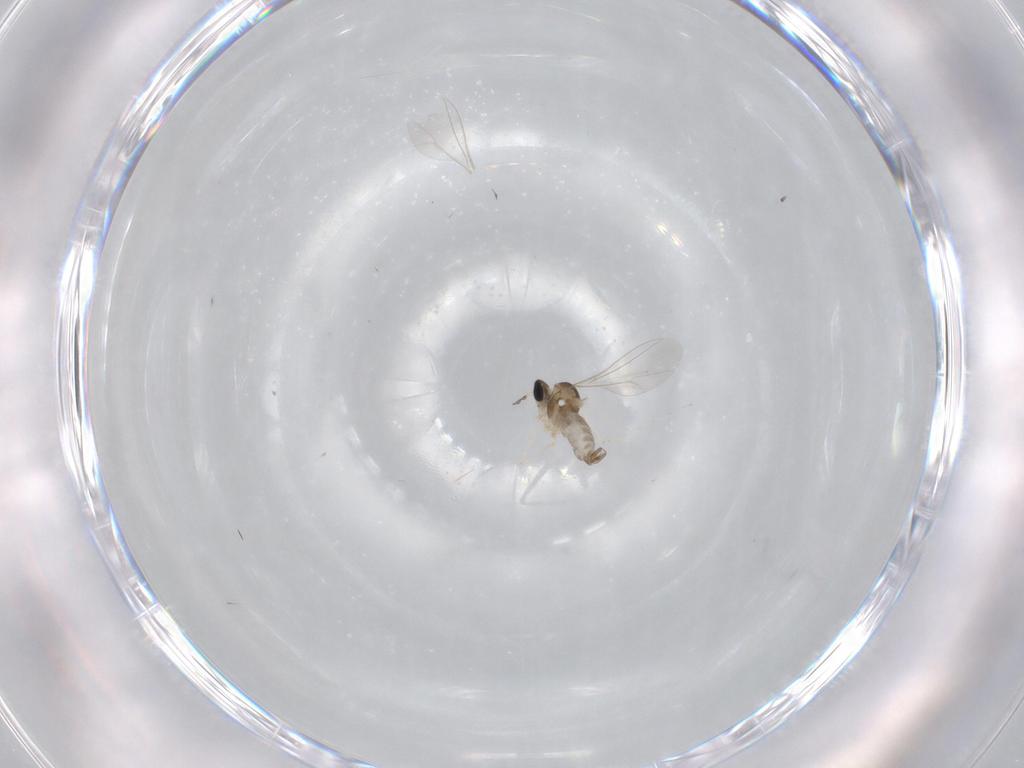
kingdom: Animalia
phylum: Arthropoda
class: Insecta
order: Diptera
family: Cecidomyiidae
